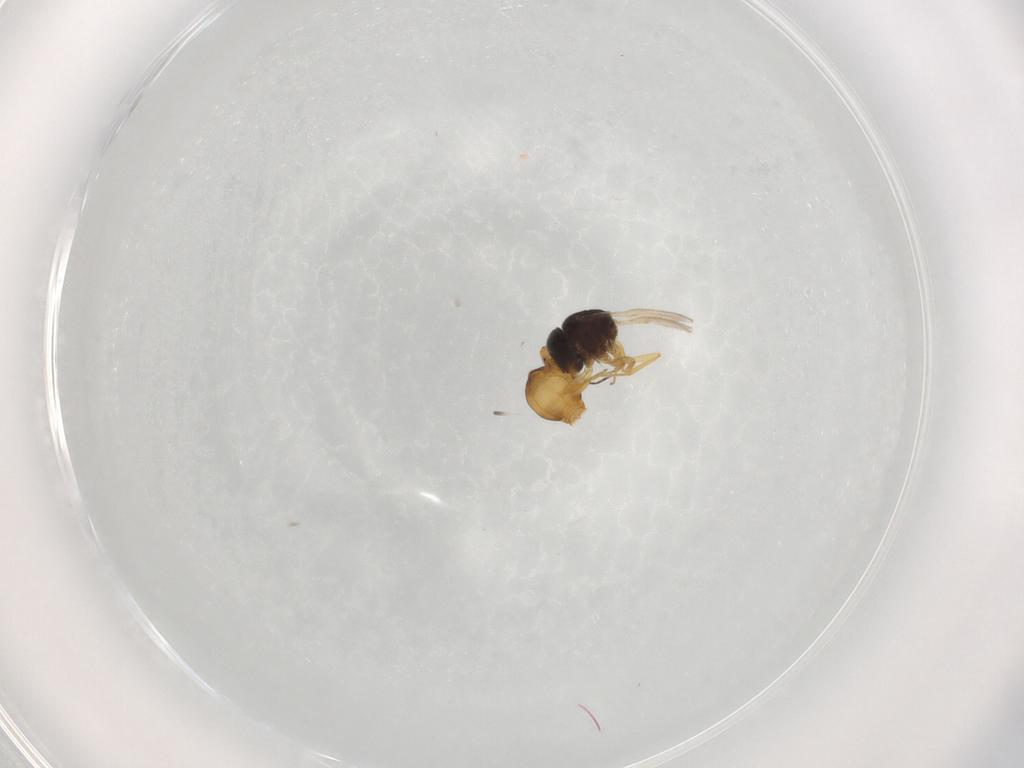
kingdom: Animalia
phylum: Arthropoda
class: Insecta
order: Hymenoptera
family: Scelionidae
